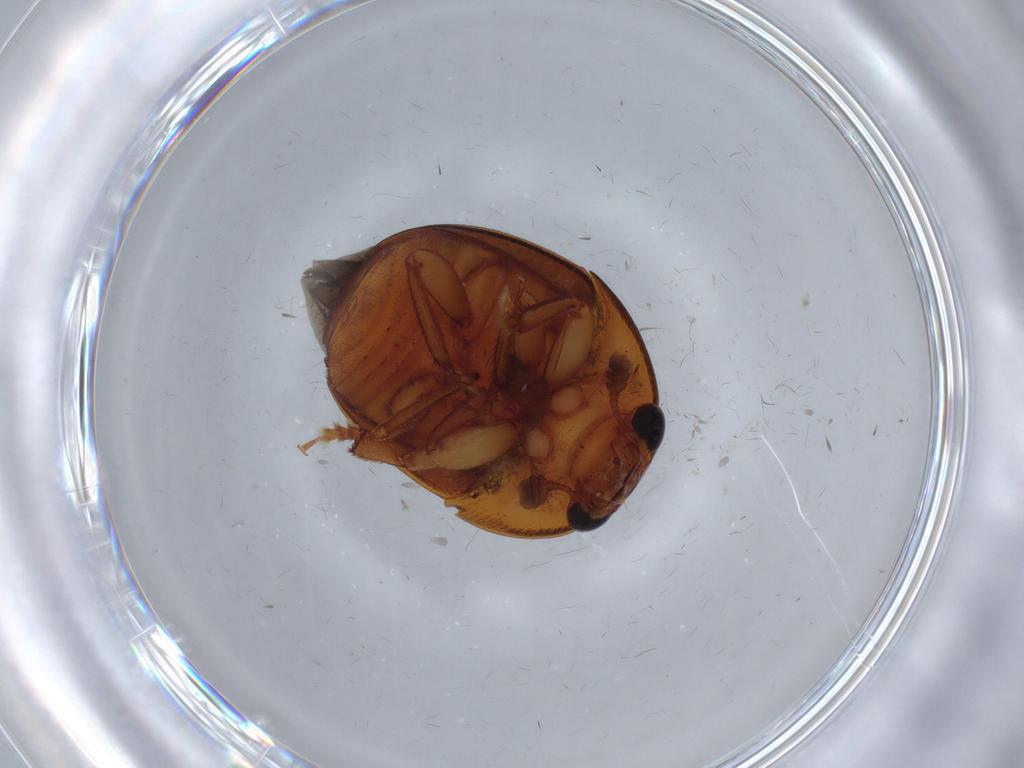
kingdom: Animalia
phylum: Arthropoda
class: Insecta
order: Coleoptera
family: Nitidulidae
